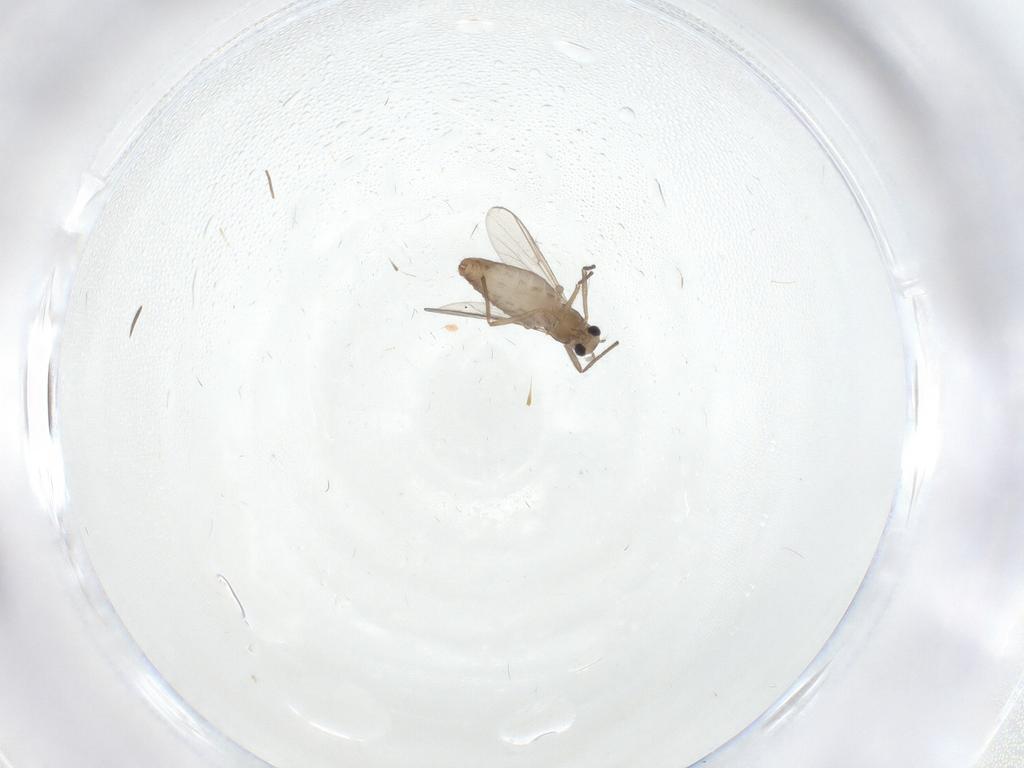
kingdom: Animalia
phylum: Arthropoda
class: Insecta
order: Diptera
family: Chironomidae
